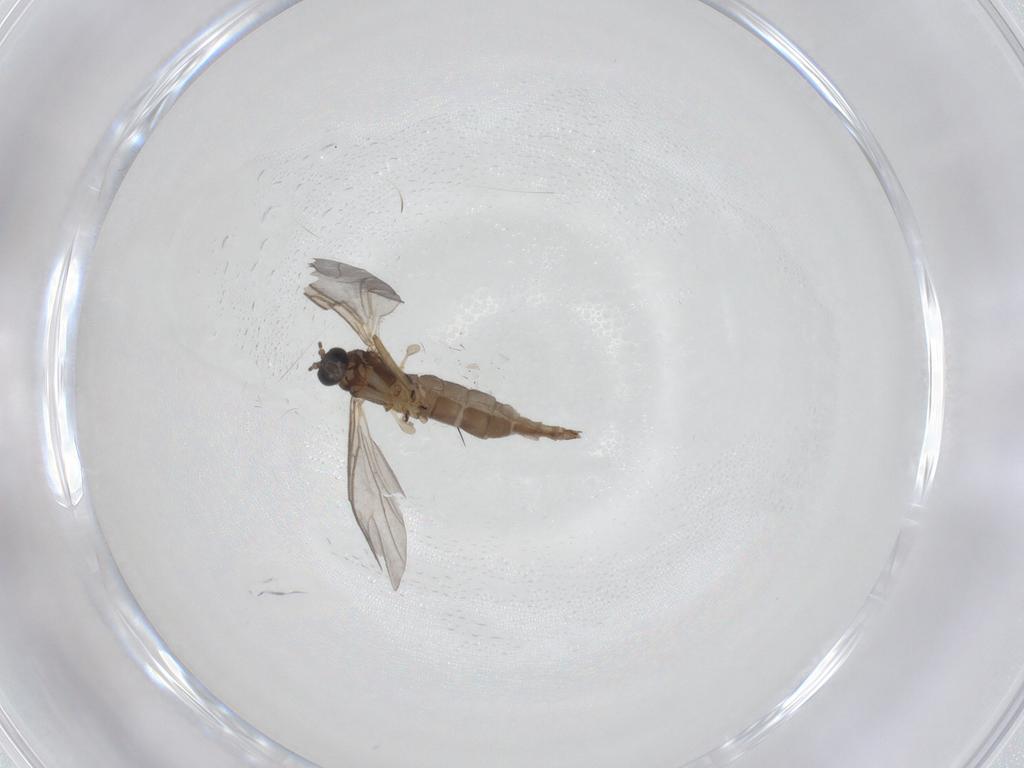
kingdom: Animalia
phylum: Arthropoda
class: Insecta
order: Diptera
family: Sciaridae
